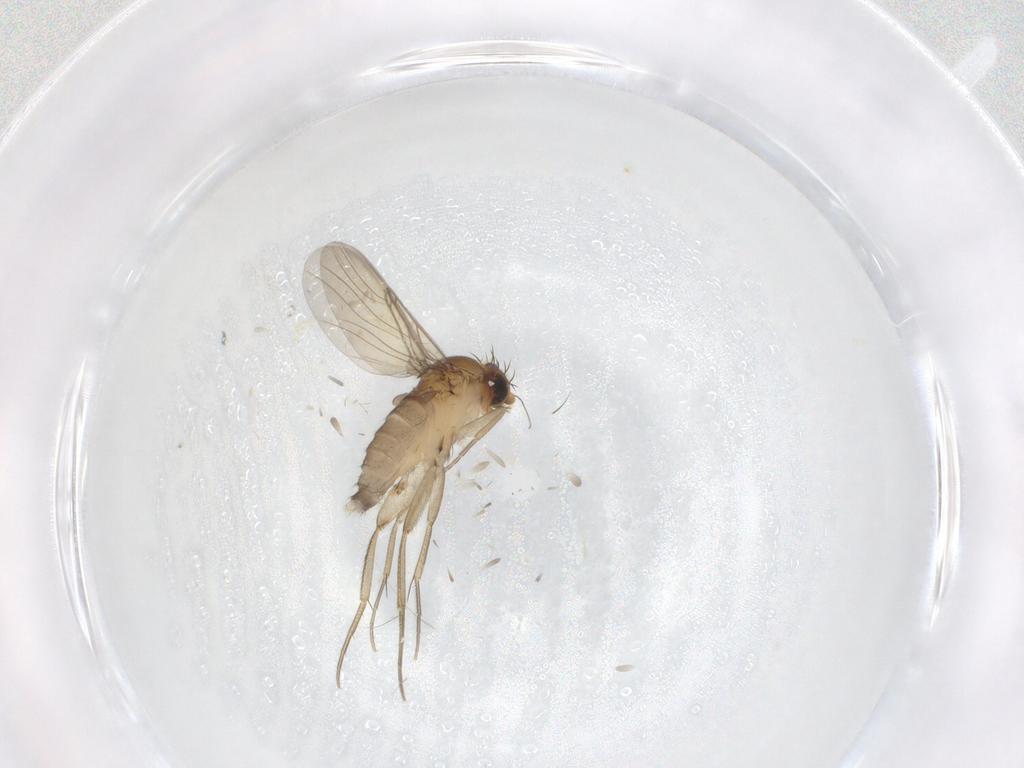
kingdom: Animalia
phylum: Arthropoda
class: Insecta
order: Diptera
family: Phoridae
